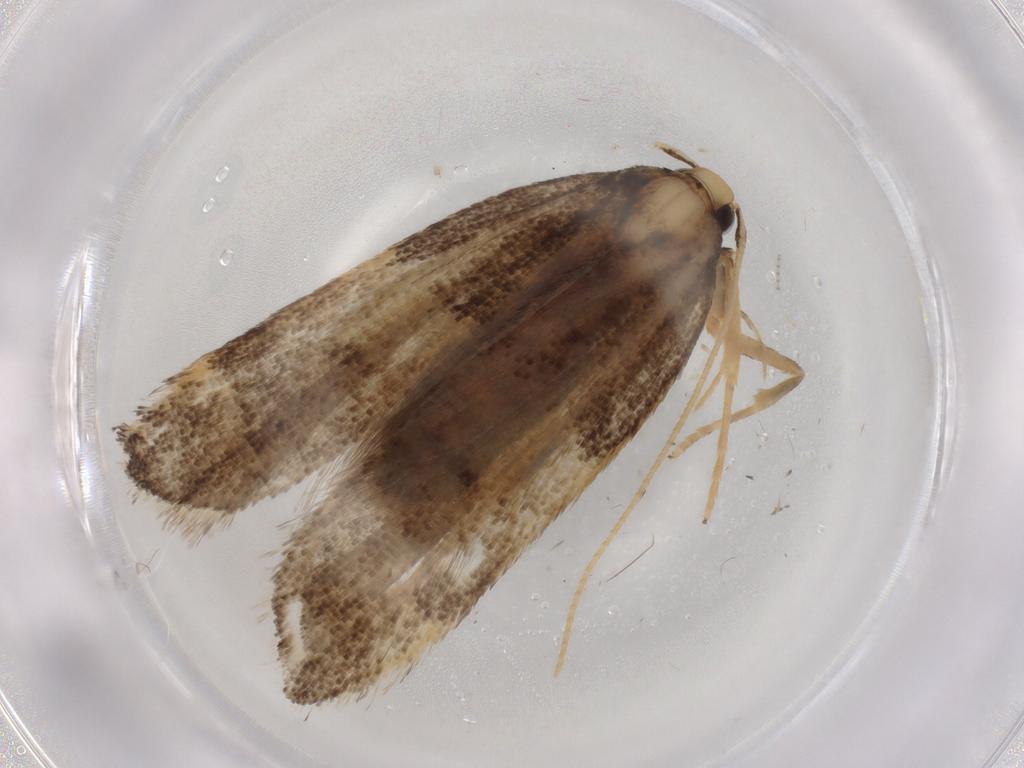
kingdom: Animalia
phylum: Arthropoda
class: Insecta
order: Lepidoptera
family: Lecithoceridae
